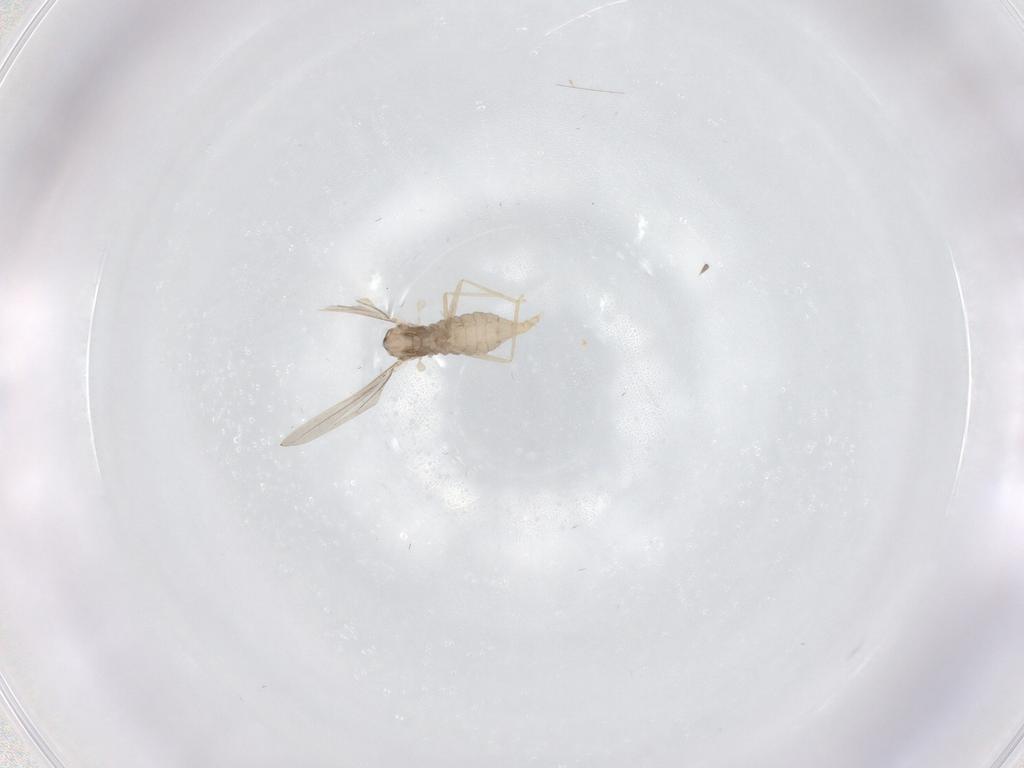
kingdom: Animalia
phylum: Arthropoda
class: Insecta
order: Diptera
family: Cecidomyiidae
